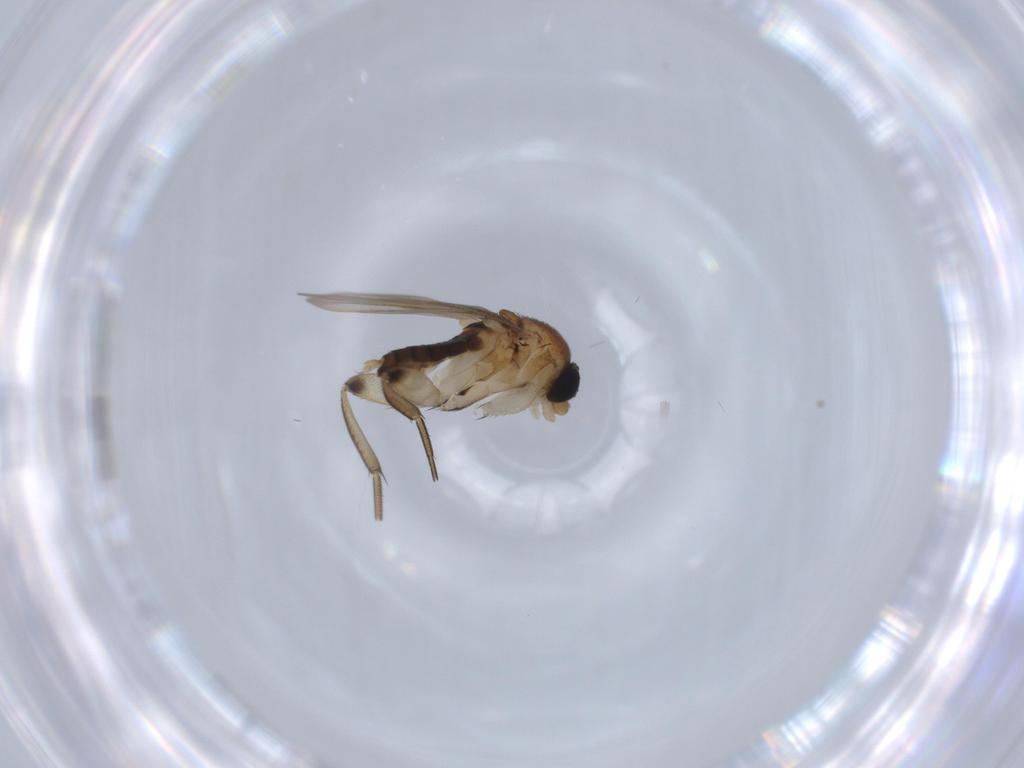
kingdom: Animalia
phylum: Arthropoda
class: Insecta
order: Diptera
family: Phoridae
